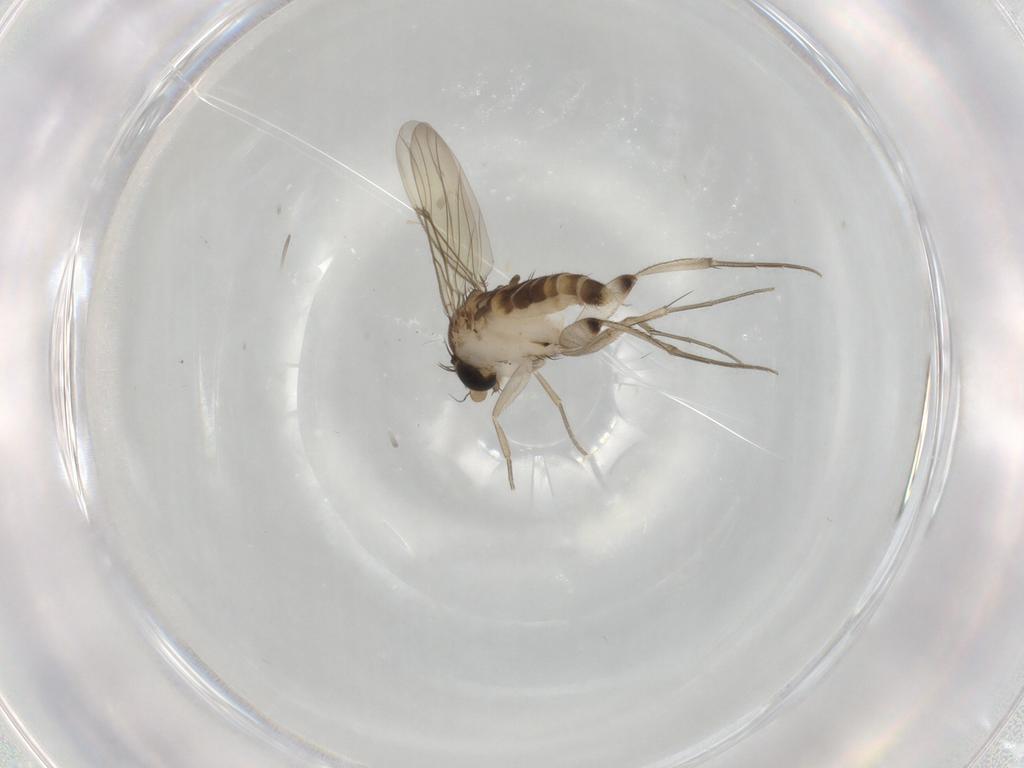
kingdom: Animalia
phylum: Arthropoda
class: Insecta
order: Diptera
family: Phoridae
